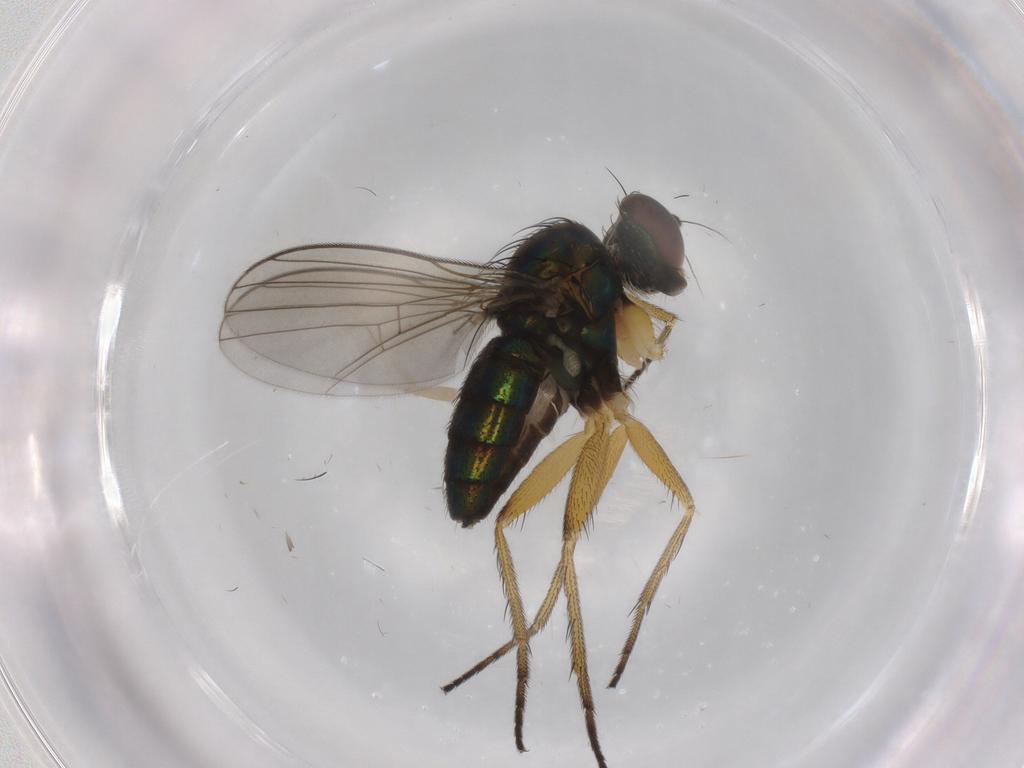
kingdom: Animalia
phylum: Arthropoda
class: Insecta
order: Diptera
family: Dolichopodidae
